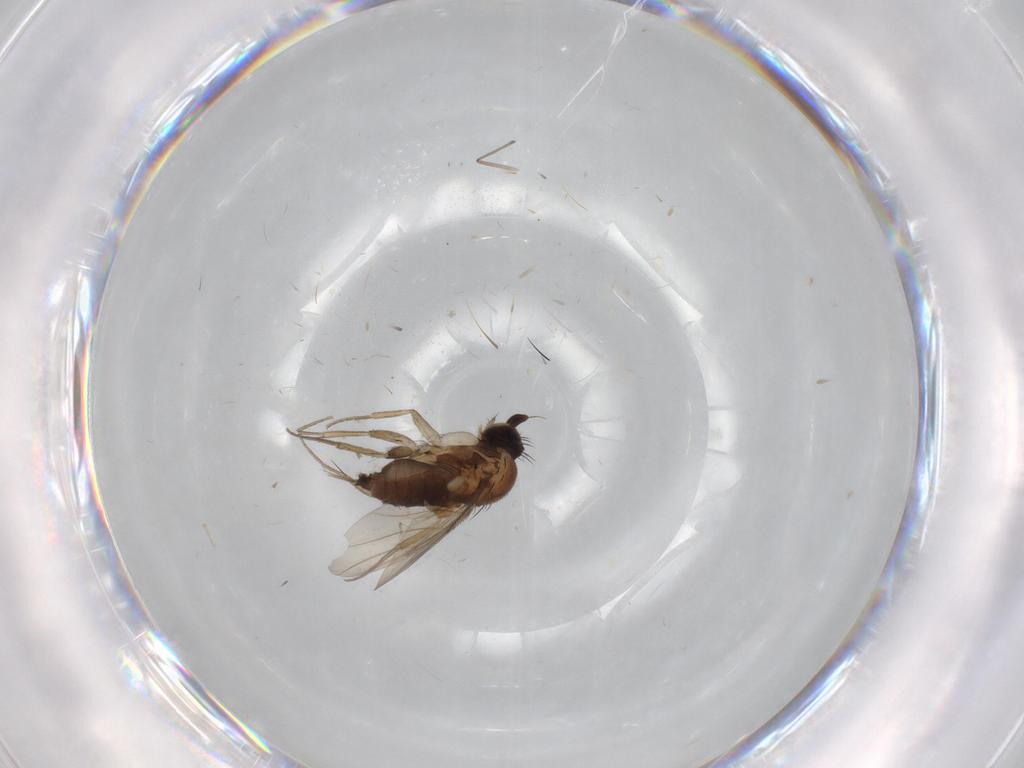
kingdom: Animalia
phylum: Arthropoda
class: Insecta
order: Diptera
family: Phoridae
